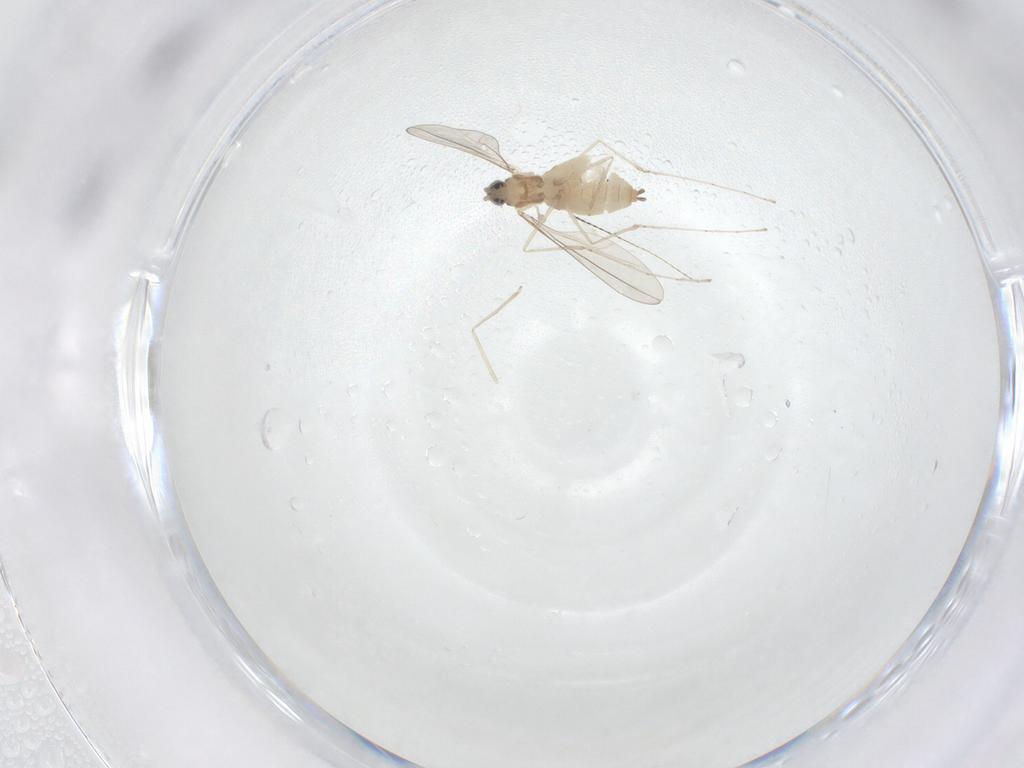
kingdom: Animalia
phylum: Arthropoda
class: Insecta
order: Diptera
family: Cecidomyiidae
